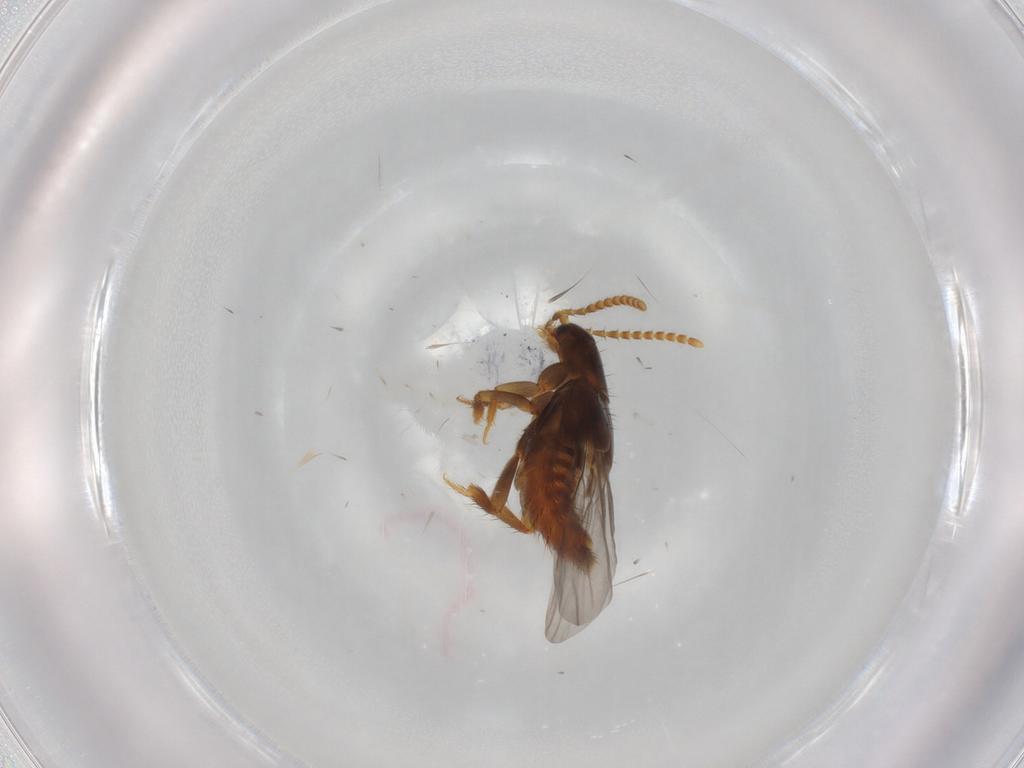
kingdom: Animalia
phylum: Arthropoda
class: Insecta
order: Coleoptera
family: Staphylinidae
